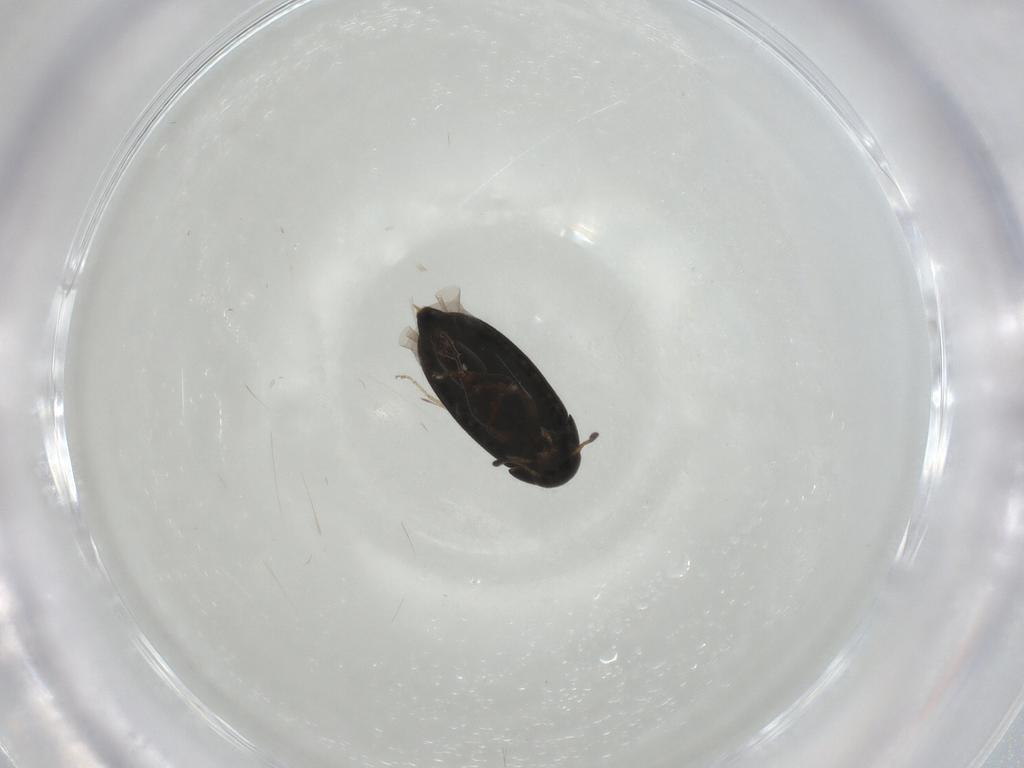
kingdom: Animalia
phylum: Arthropoda
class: Insecta
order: Coleoptera
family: Scraptiidae
